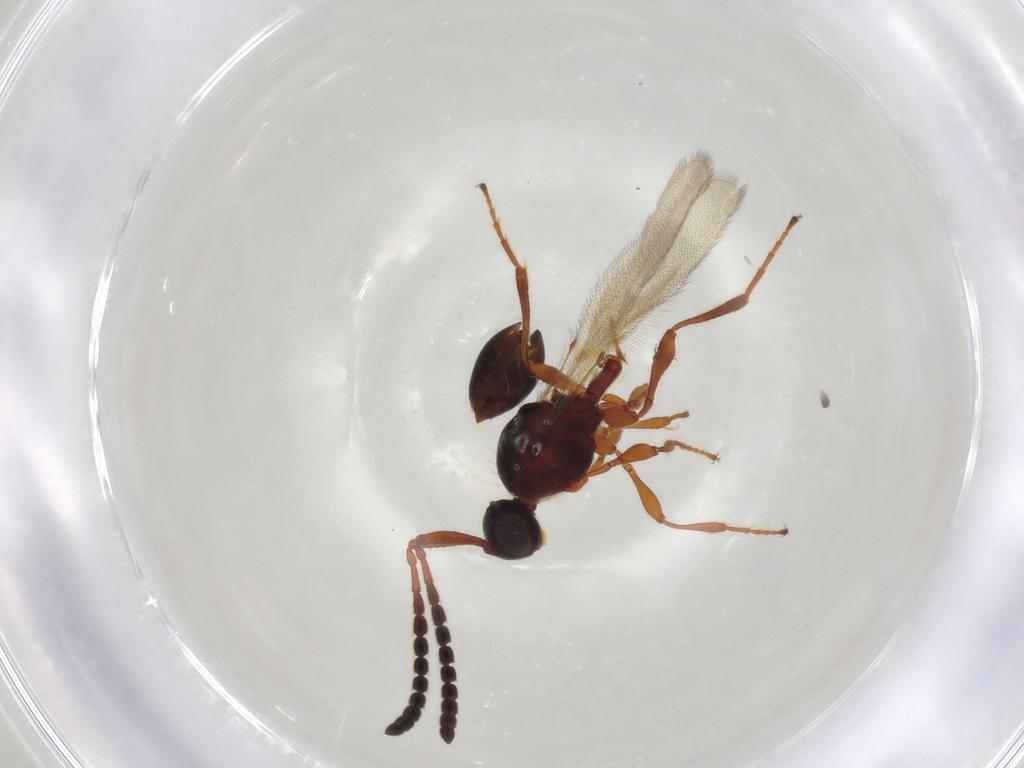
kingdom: Animalia
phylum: Arthropoda
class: Insecta
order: Hymenoptera
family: Diapriidae
